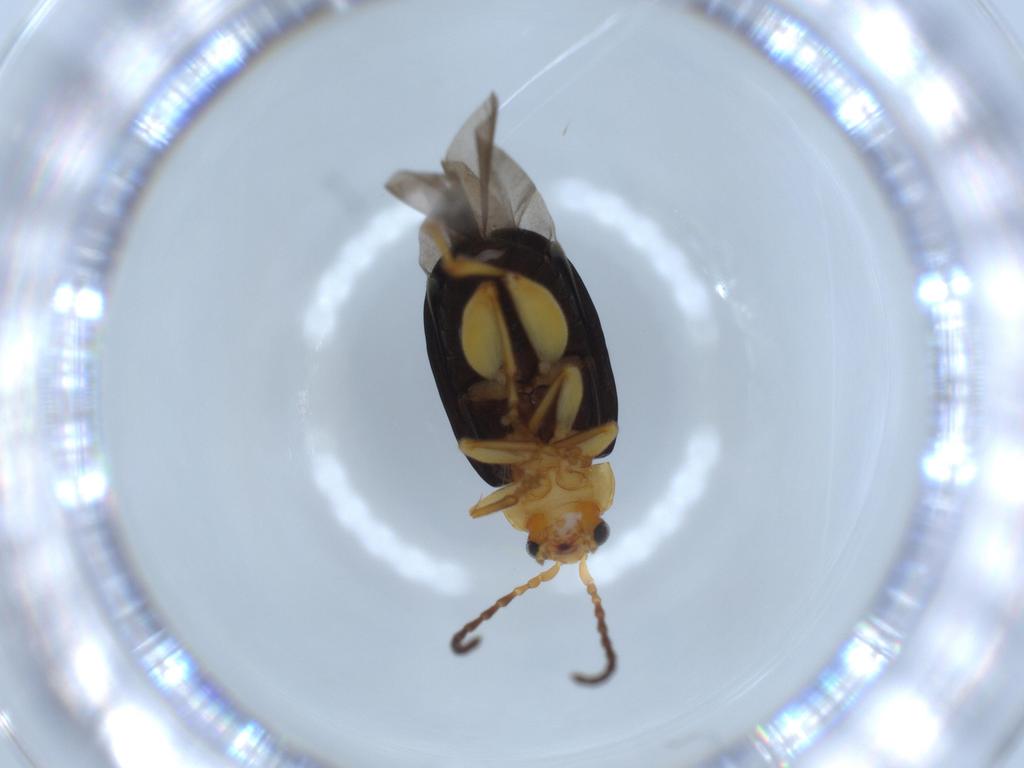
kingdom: Animalia
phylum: Arthropoda
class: Insecta
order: Coleoptera
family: Chrysomelidae
